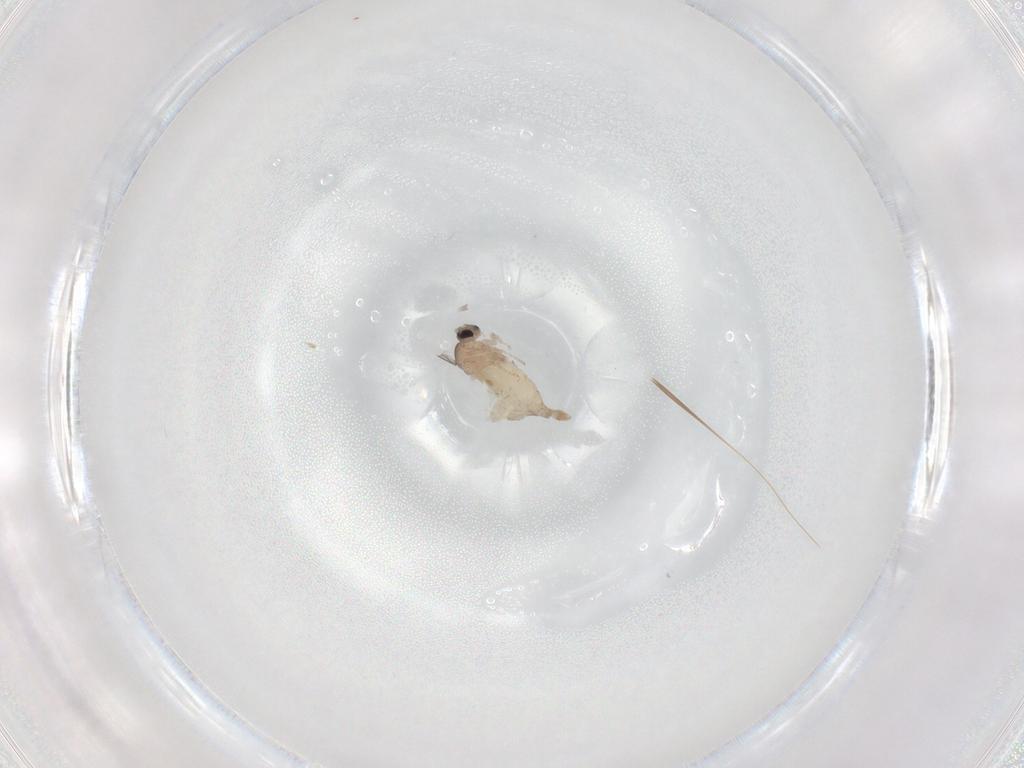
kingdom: Animalia
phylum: Arthropoda
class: Insecta
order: Diptera
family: Cecidomyiidae
